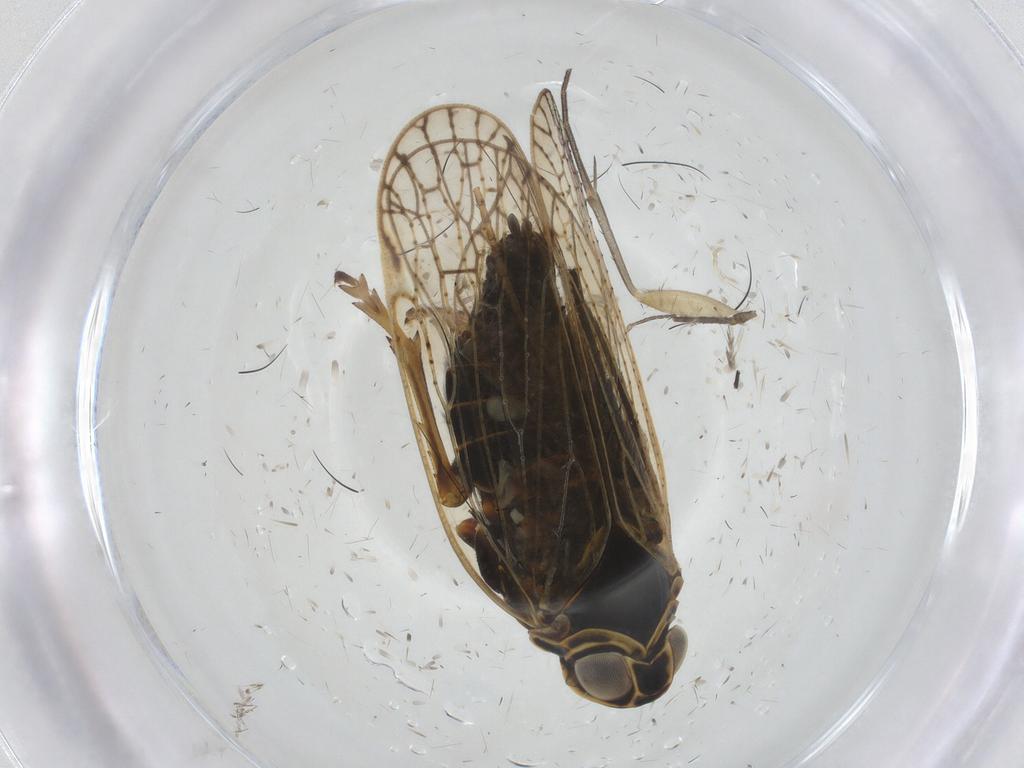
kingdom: Animalia
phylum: Arthropoda
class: Insecta
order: Hemiptera
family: Cixiidae
